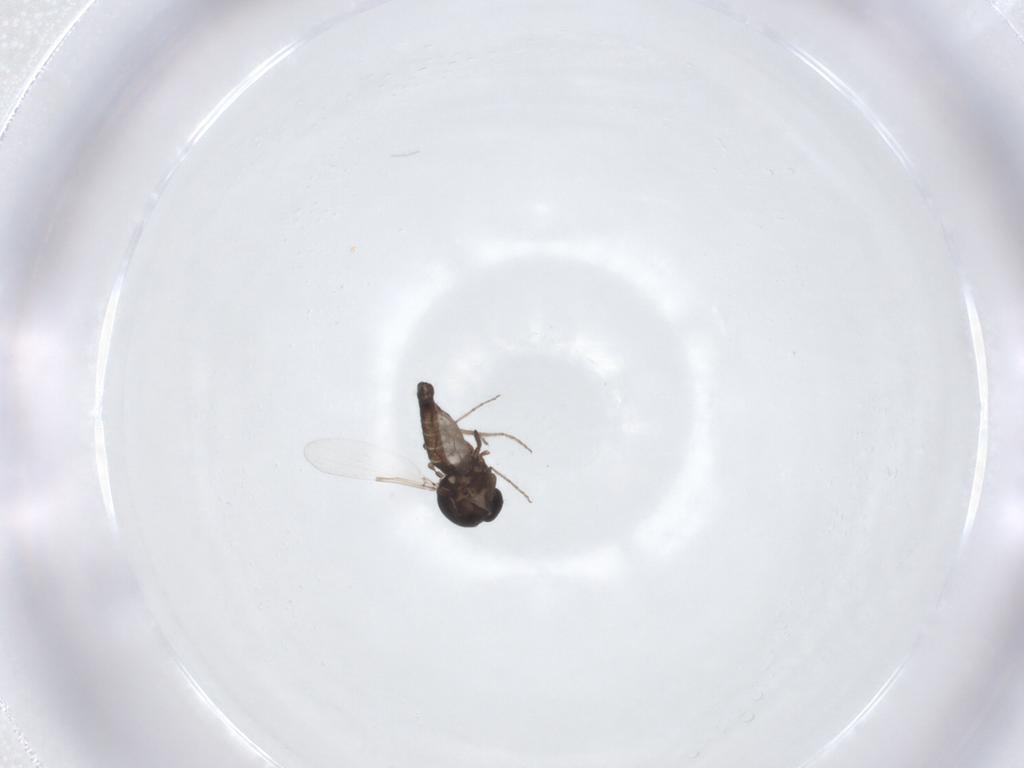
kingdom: Animalia
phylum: Arthropoda
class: Insecta
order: Diptera
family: Ceratopogonidae
